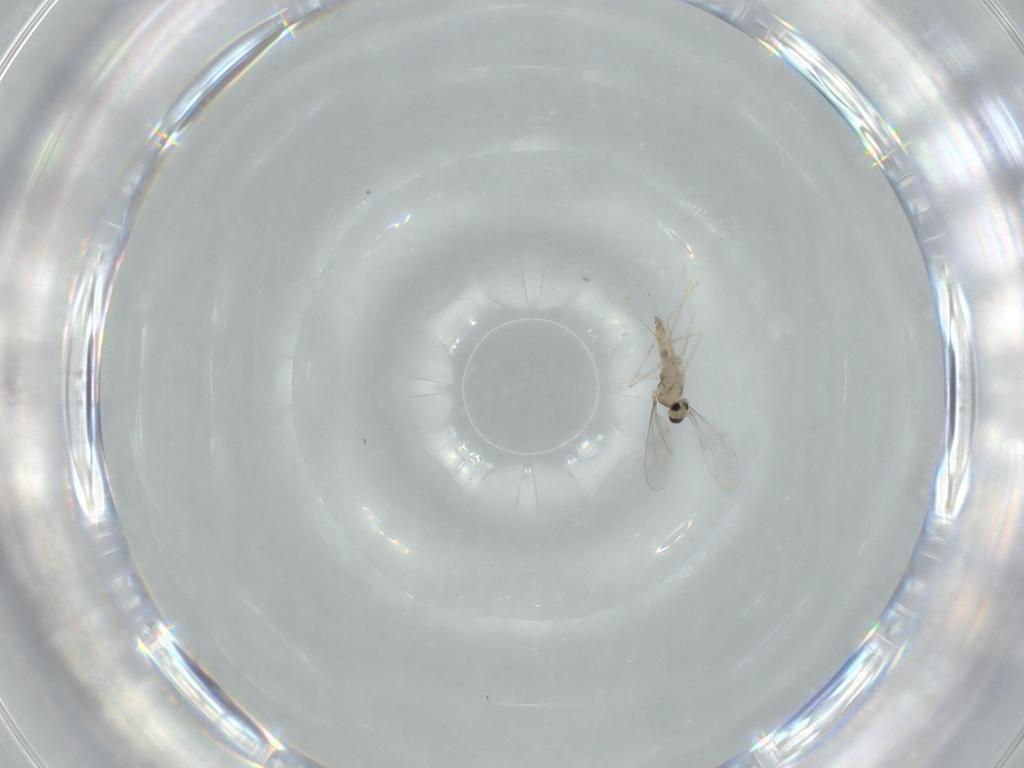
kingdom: Animalia
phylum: Arthropoda
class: Insecta
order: Diptera
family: Cecidomyiidae
